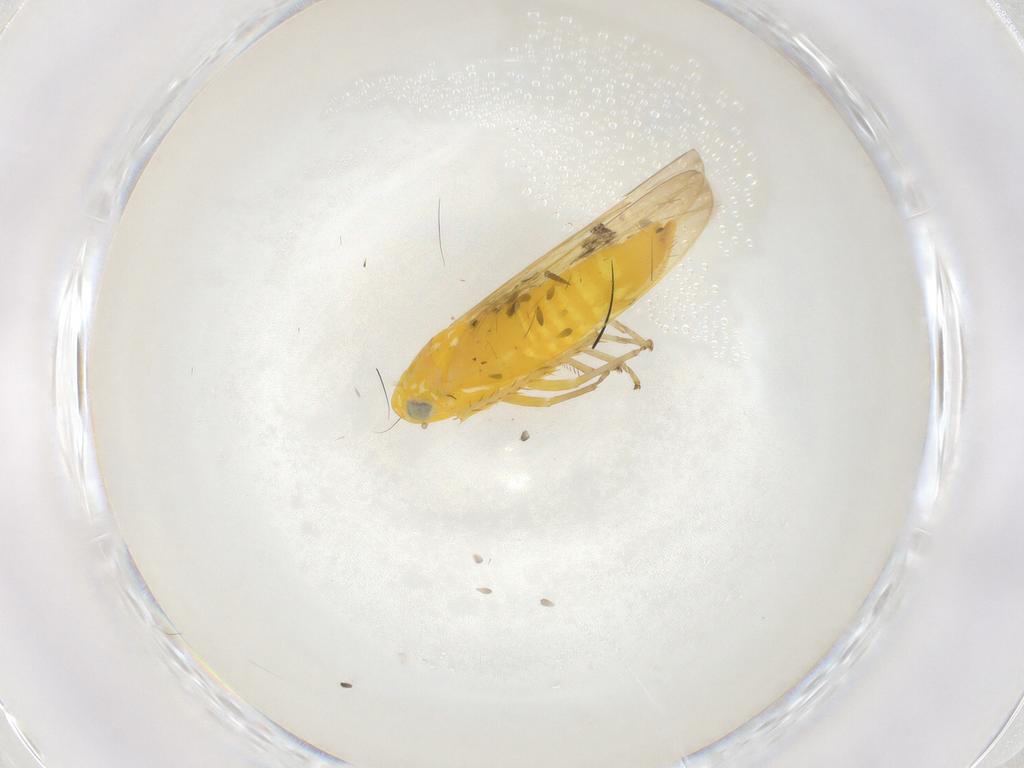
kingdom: Animalia
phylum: Arthropoda
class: Insecta
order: Hemiptera
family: Cicadellidae
